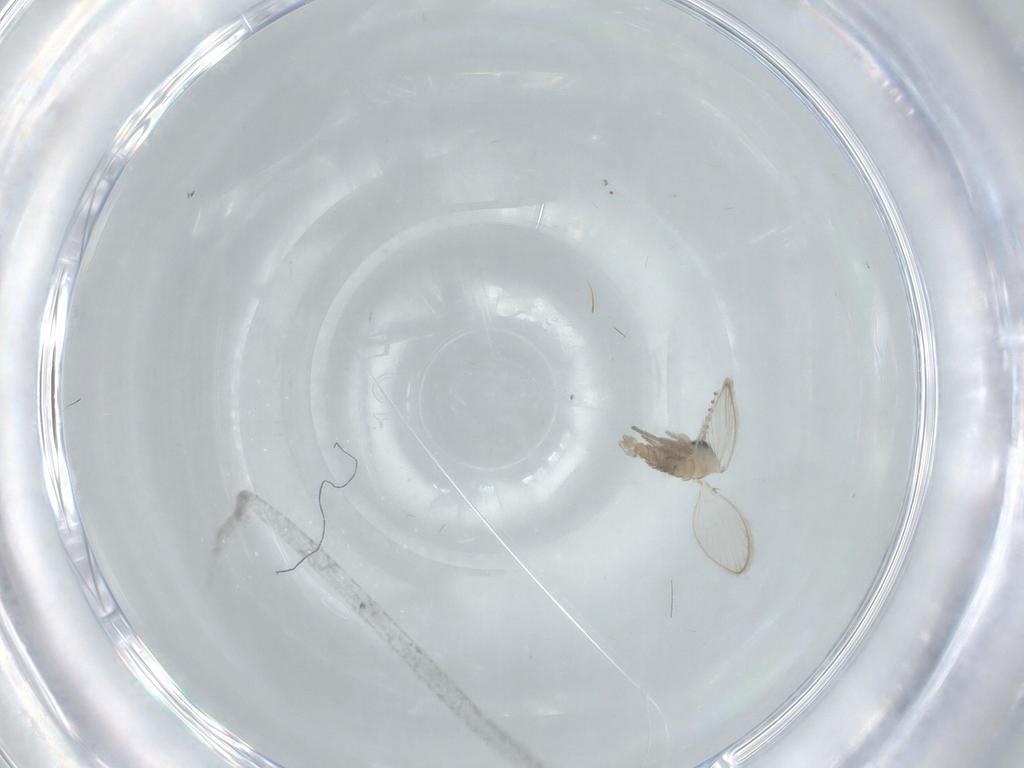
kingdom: Animalia
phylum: Arthropoda
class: Insecta
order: Diptera
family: Psychodidae
